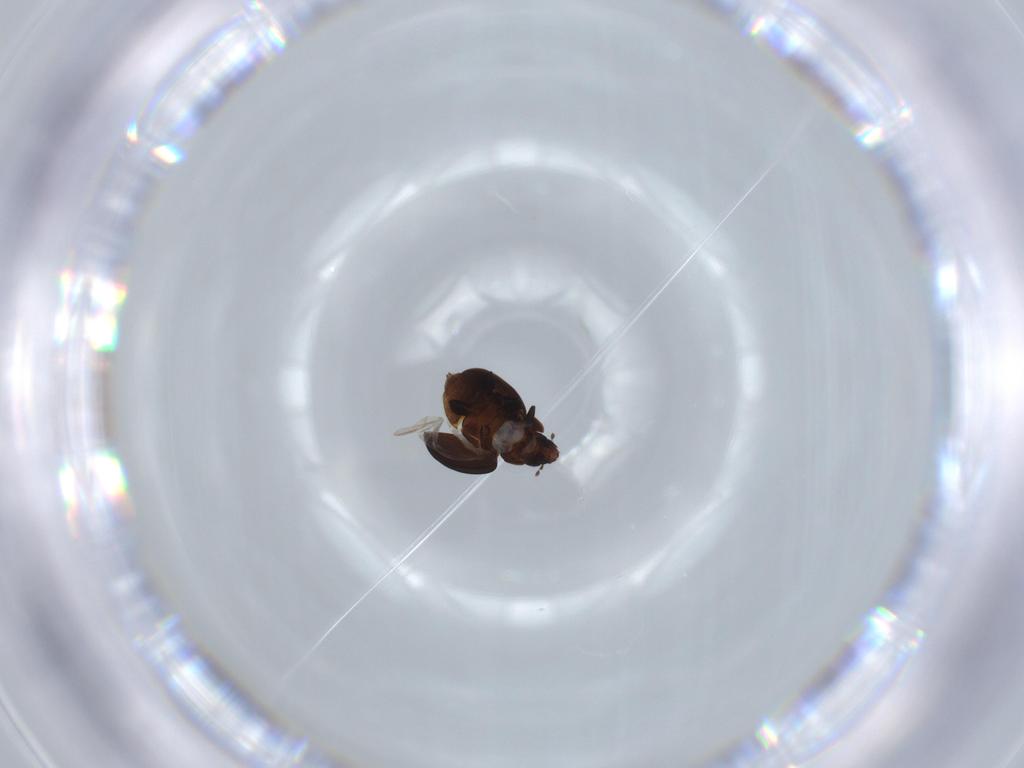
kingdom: Animalia
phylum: Arthropoda
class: Insecta
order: Coleoptera
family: Coccinellidae
